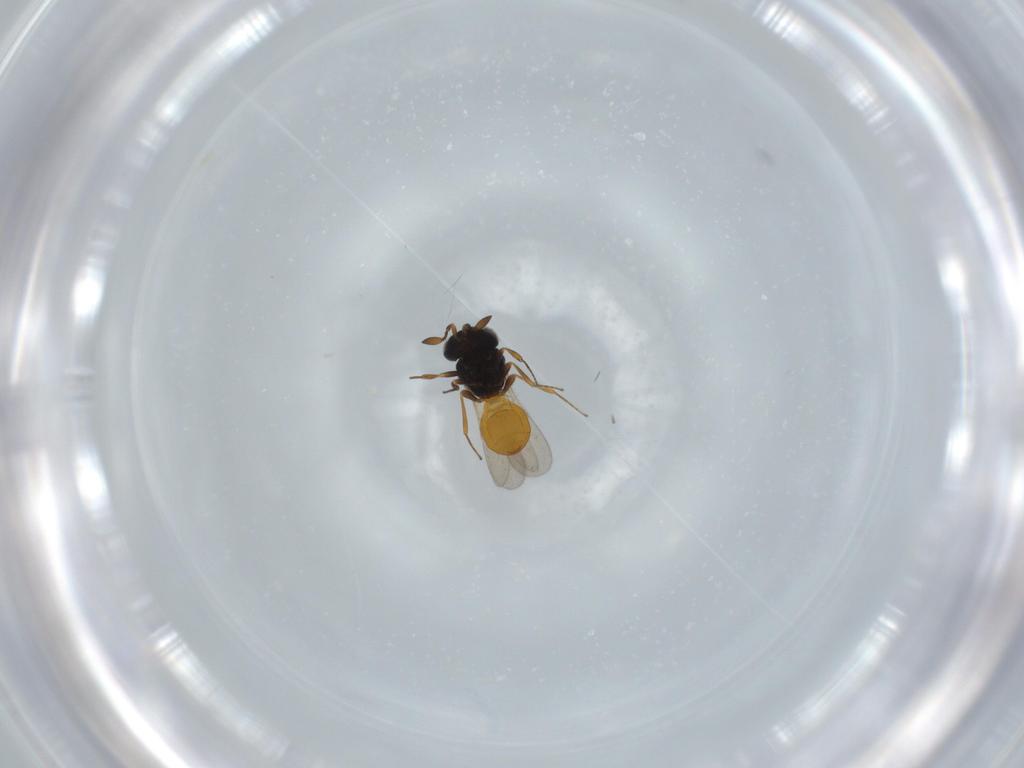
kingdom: Animalia
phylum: Arthropoda
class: Insecta
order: Hymenoptera
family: Scelionidae
